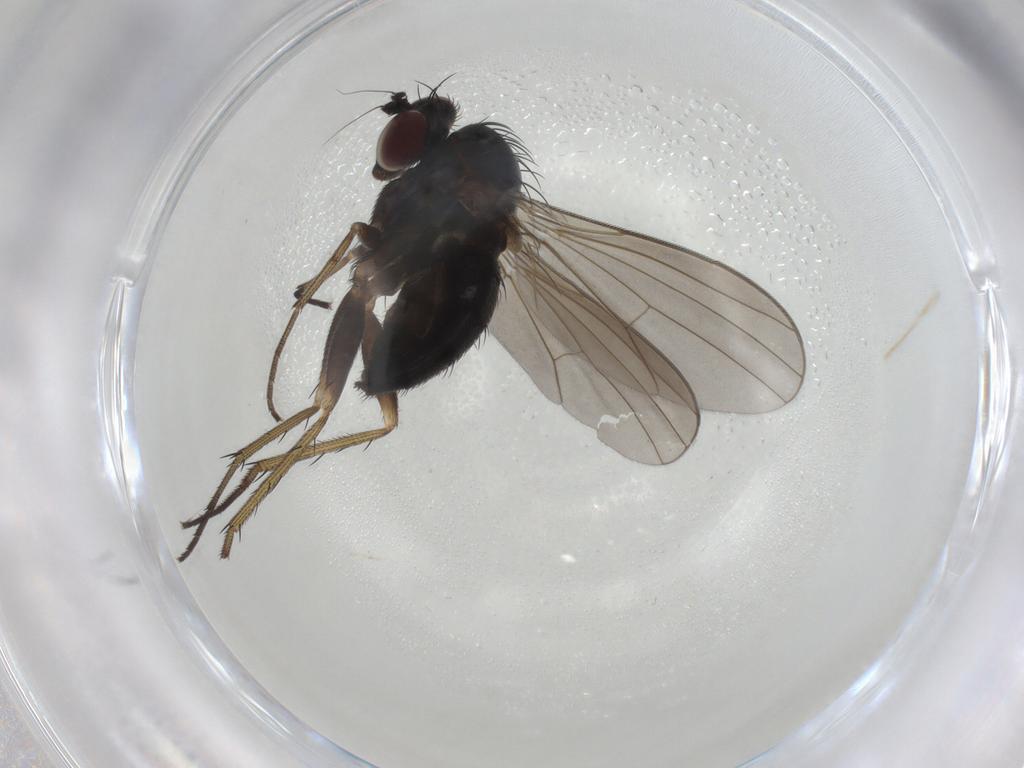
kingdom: Animalia
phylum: Arthropoda
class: Insecta
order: Diptera
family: Dolichopodidae
